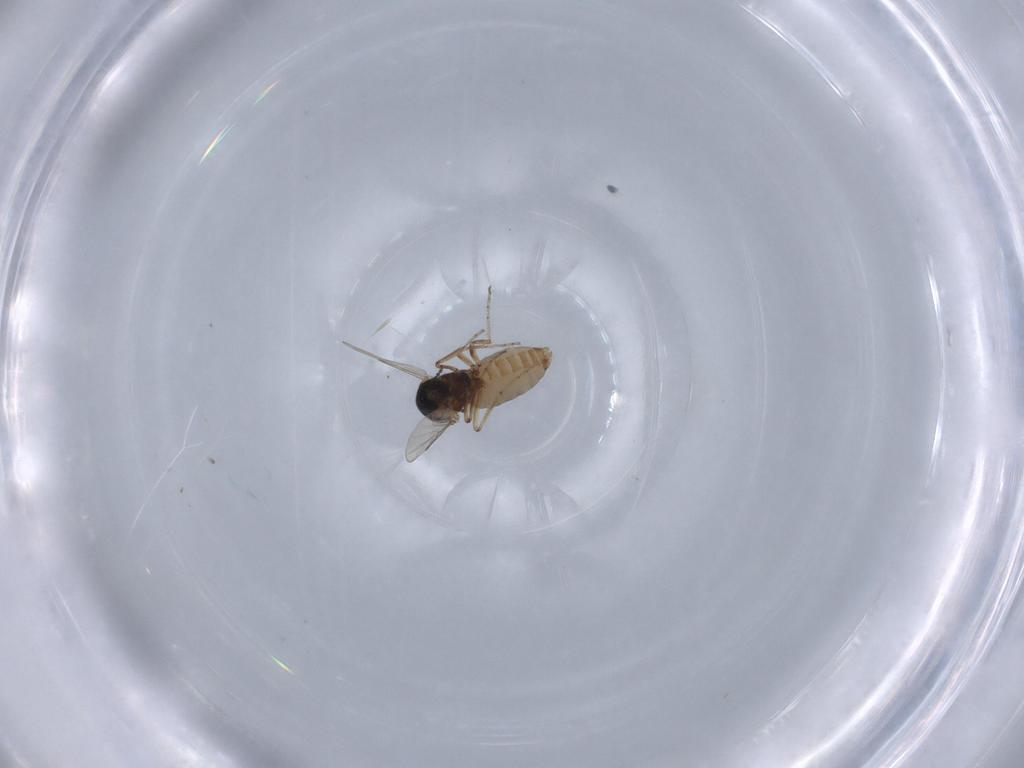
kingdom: Animalia
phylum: Arthropoda
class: Insecta
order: Diptera
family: Ceratopogonidae
